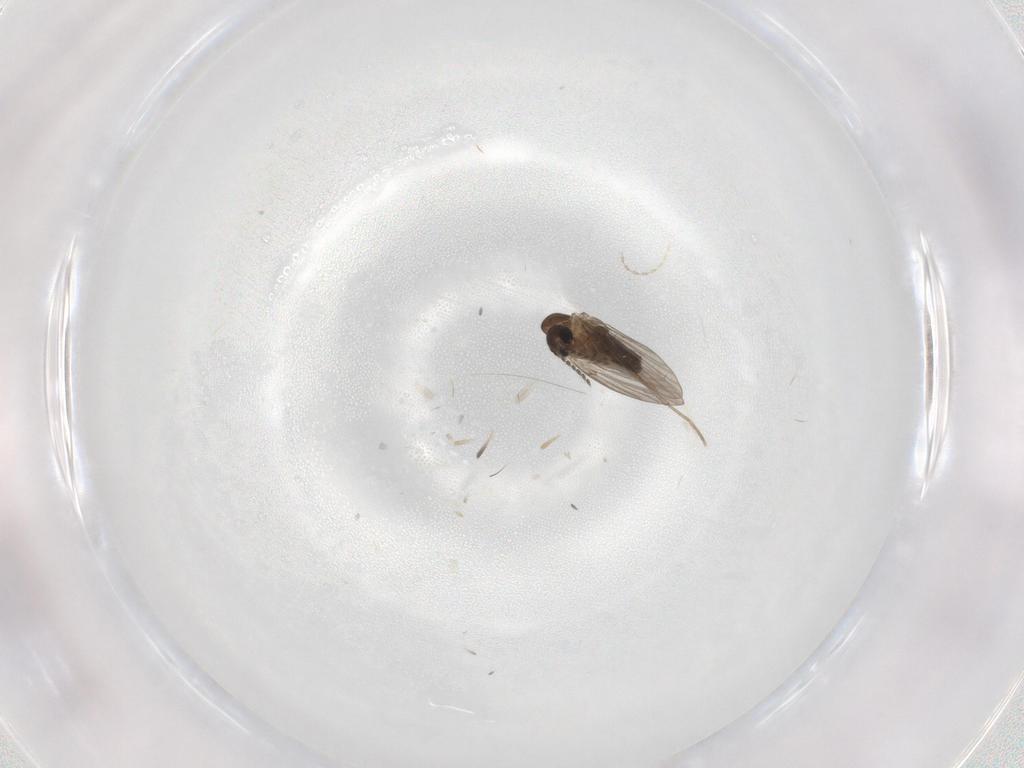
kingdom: Animalia
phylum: Arthropoda
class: Insecta
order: Diptera
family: Psychodidae
